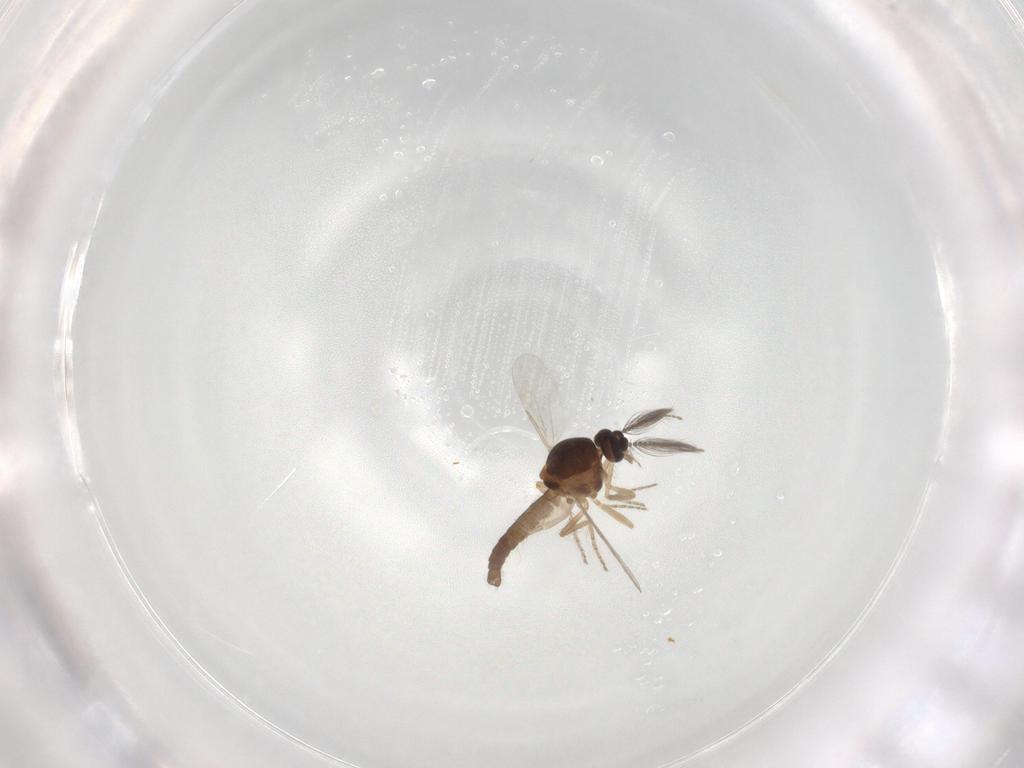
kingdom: Animalia
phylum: Arthropoda
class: Insecta
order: Diptera
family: Ceratopogonidae
